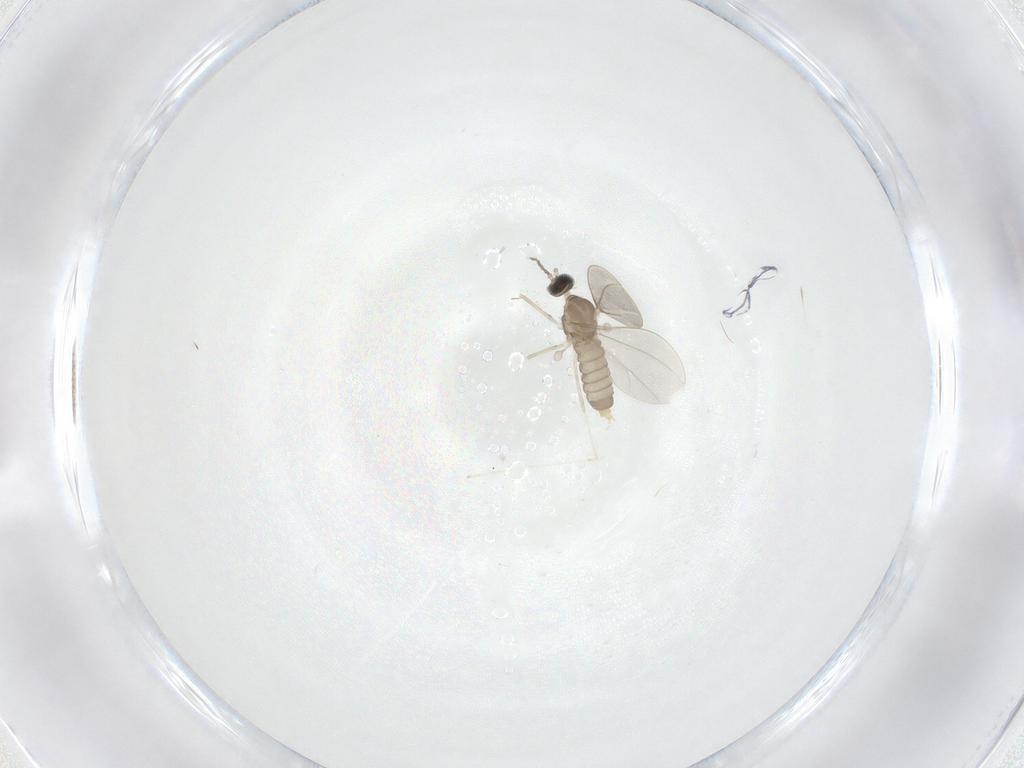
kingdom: Animalia
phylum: Arthropoda
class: Insecta
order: Diptera
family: Cecidomyiidae
